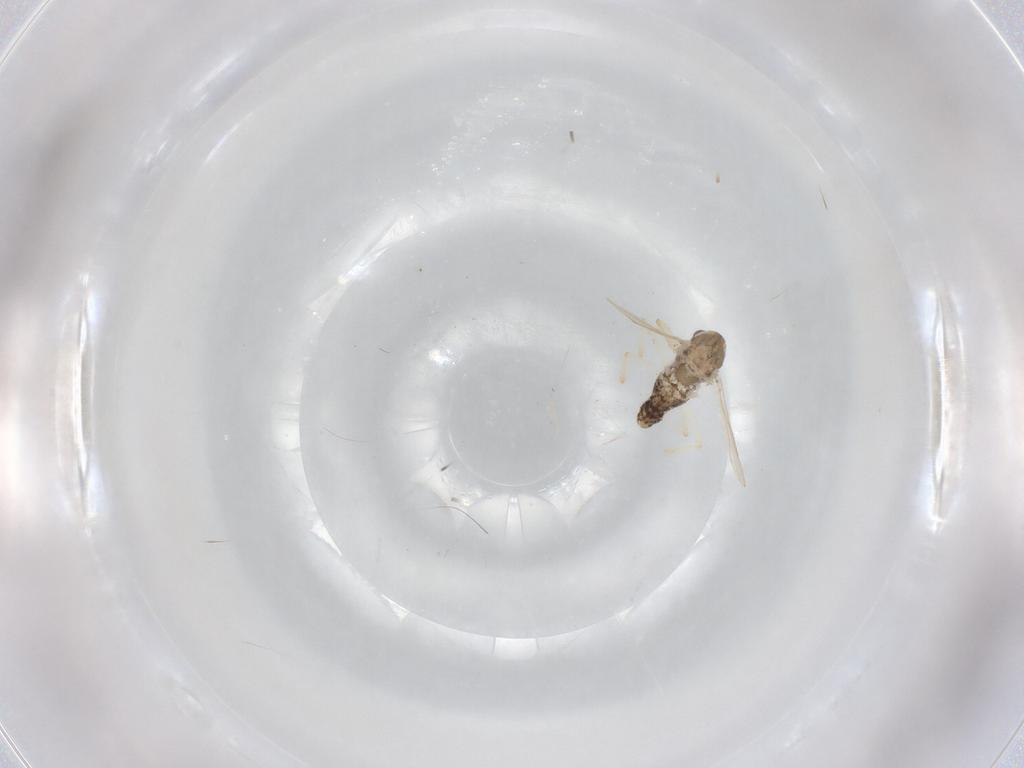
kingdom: Animalia
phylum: Arthropoda
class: Insecta
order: Diptera
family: Chironomidae
